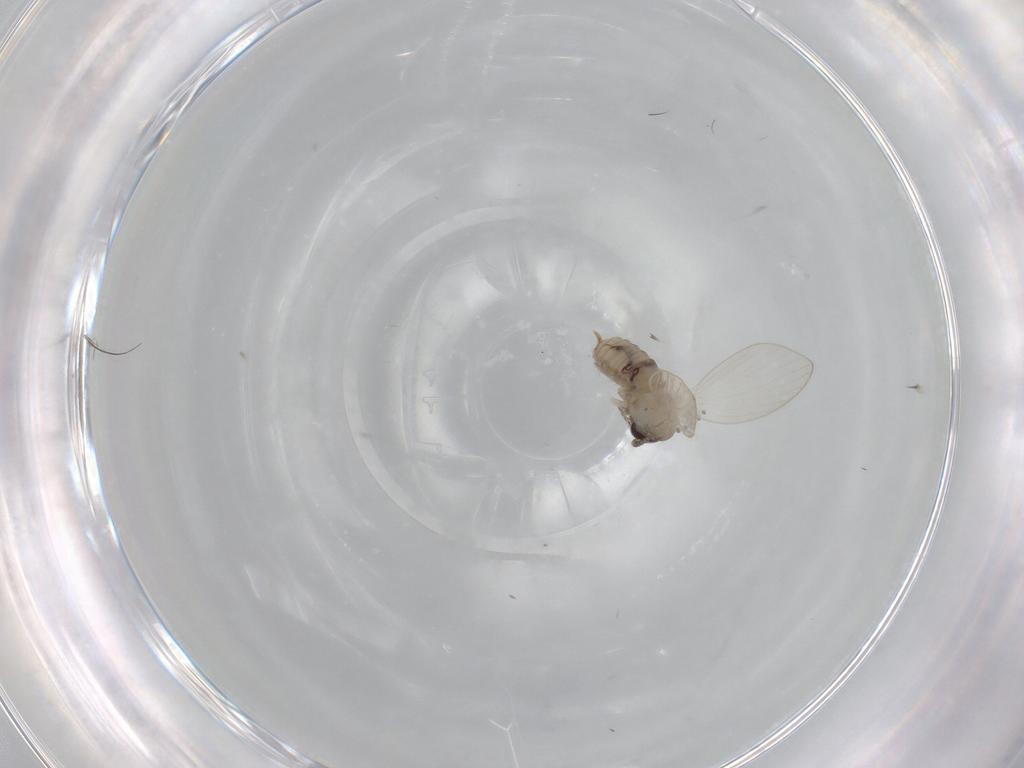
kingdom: Animalia
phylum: Arthropoda
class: Insecta
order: Diptera
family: Psychodidae
